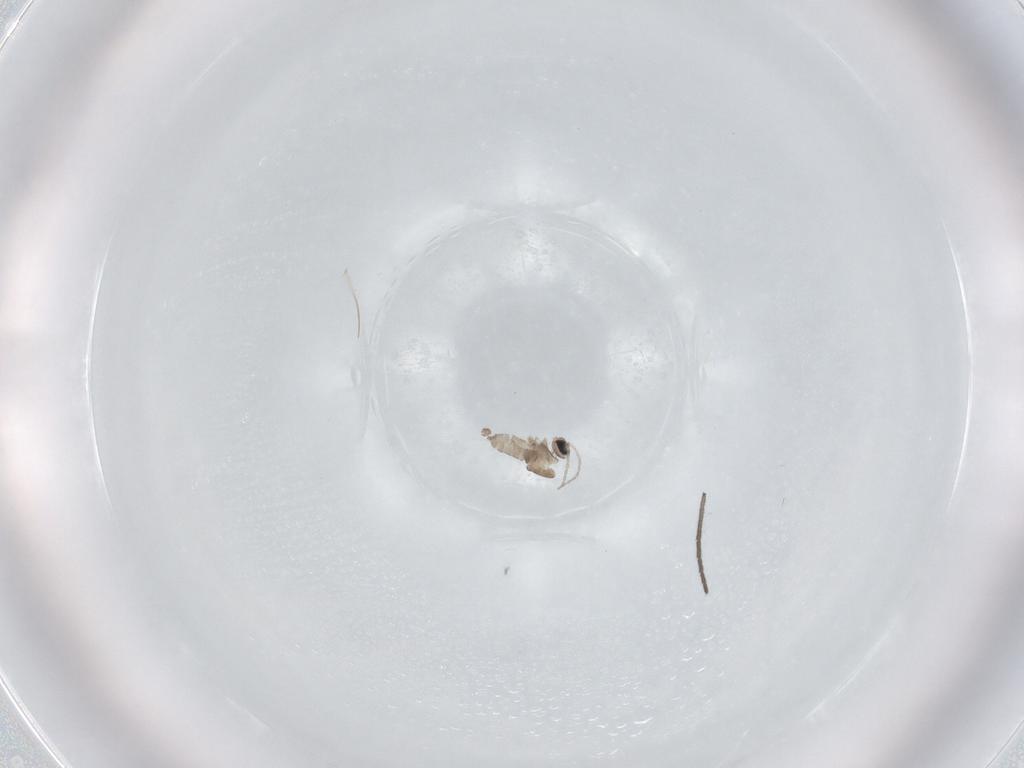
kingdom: Animalia
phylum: Arthropoda
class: Insecta
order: Diptera
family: Cecidomyiidae
